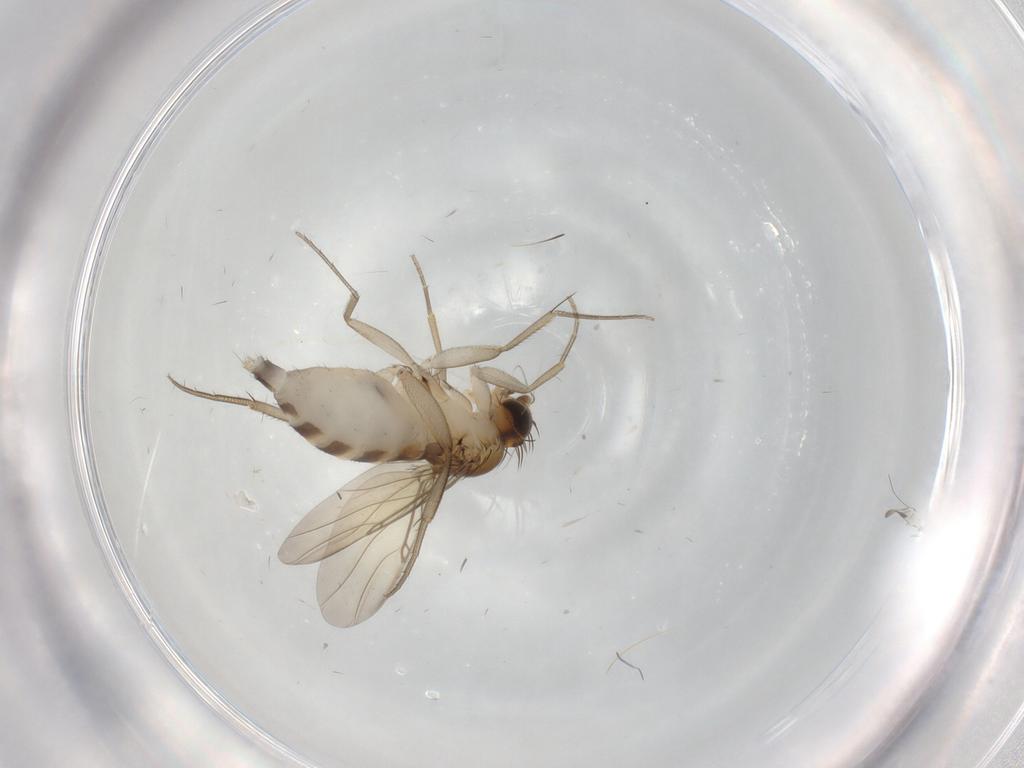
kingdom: Animalia
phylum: Arthropoda
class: Insecta
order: Diptera
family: Phoridae
